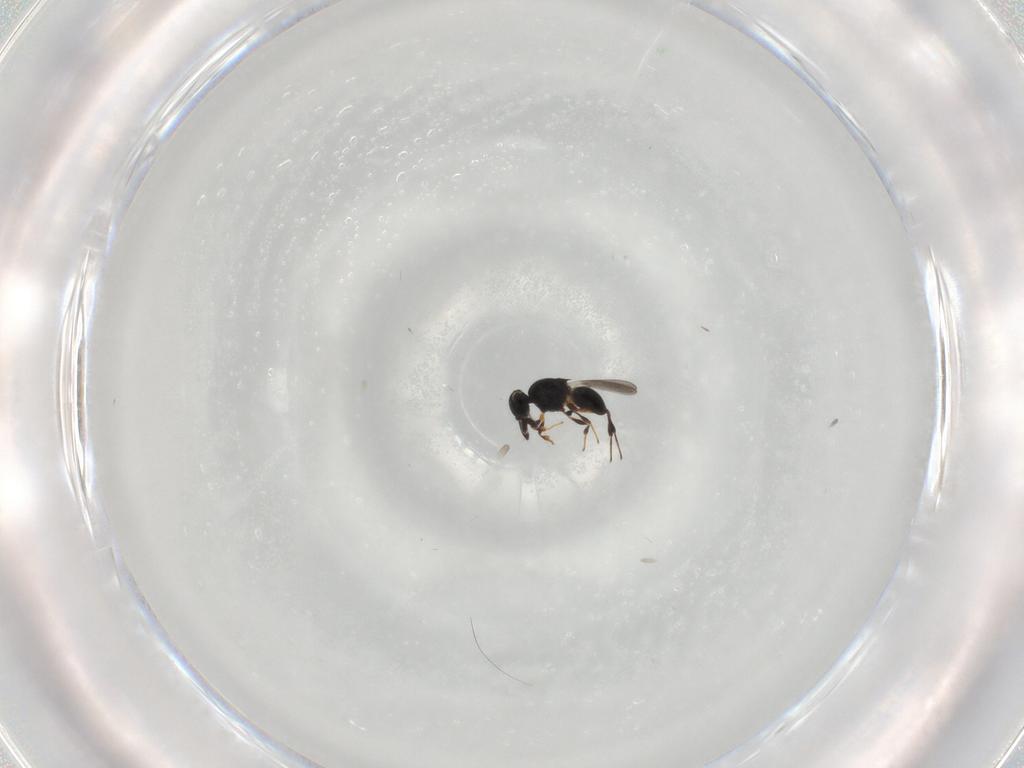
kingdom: Animalia
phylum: Arthropoda
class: Insecta
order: Hymenoptera
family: Platygastridae
